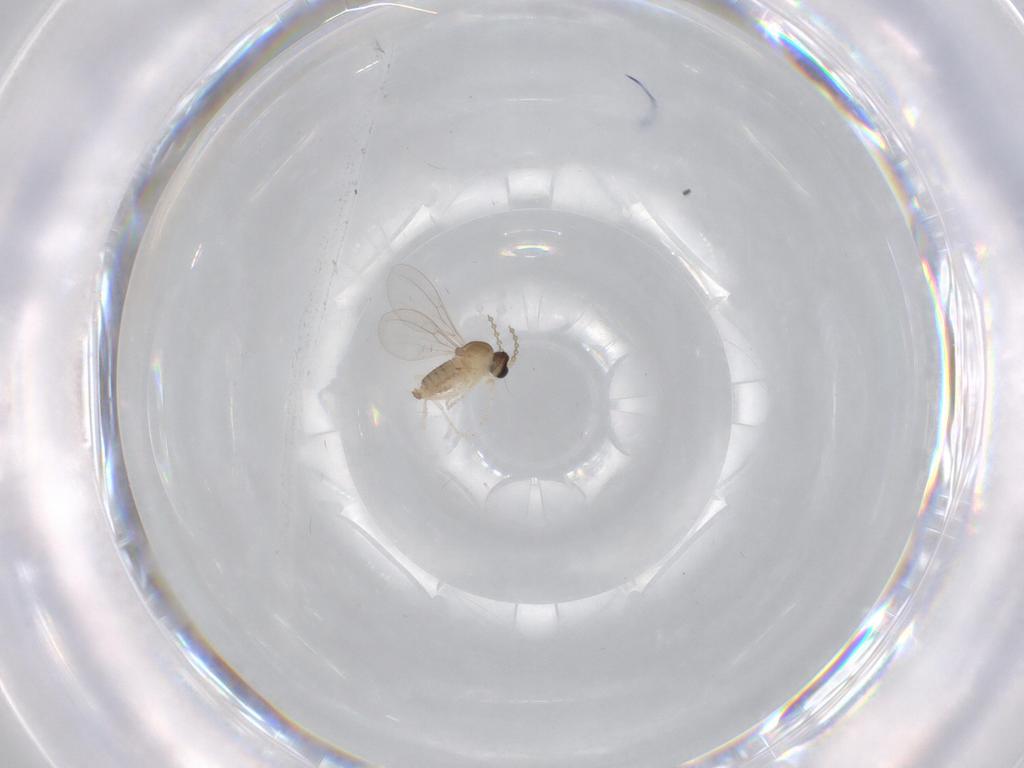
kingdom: Animalia
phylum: Arthropoda
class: Insecta
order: Diptera
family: Cecidomyiidae
